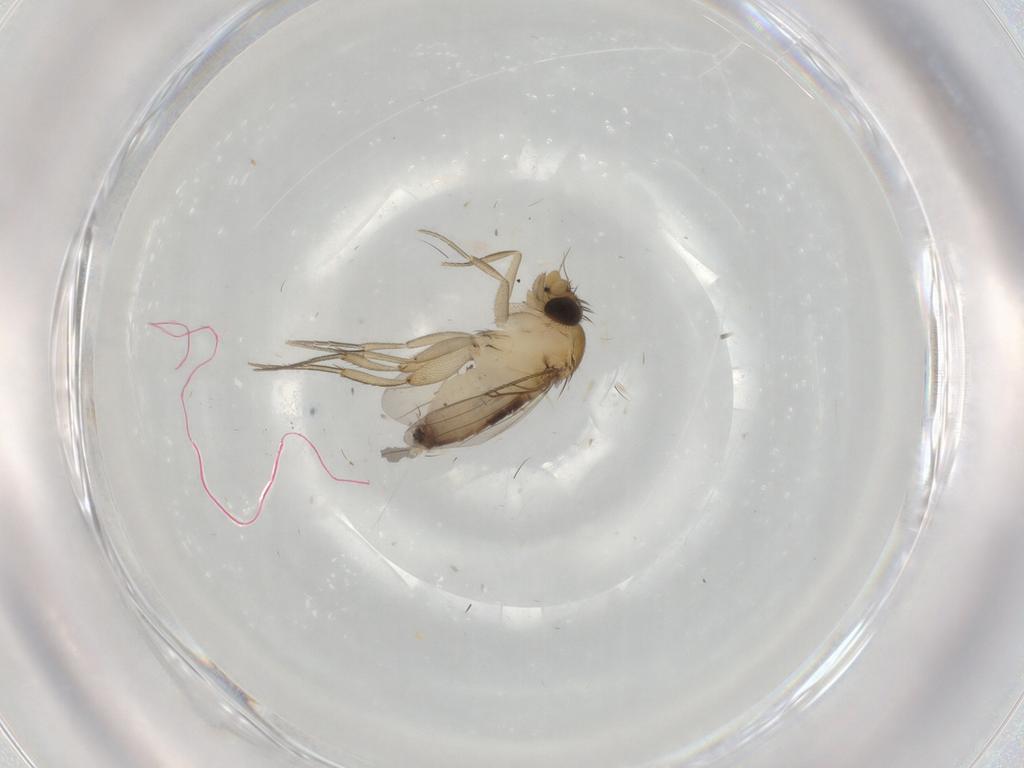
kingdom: Animalia
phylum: Arthropoda
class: Insecta
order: Diptera
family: Phoridae
